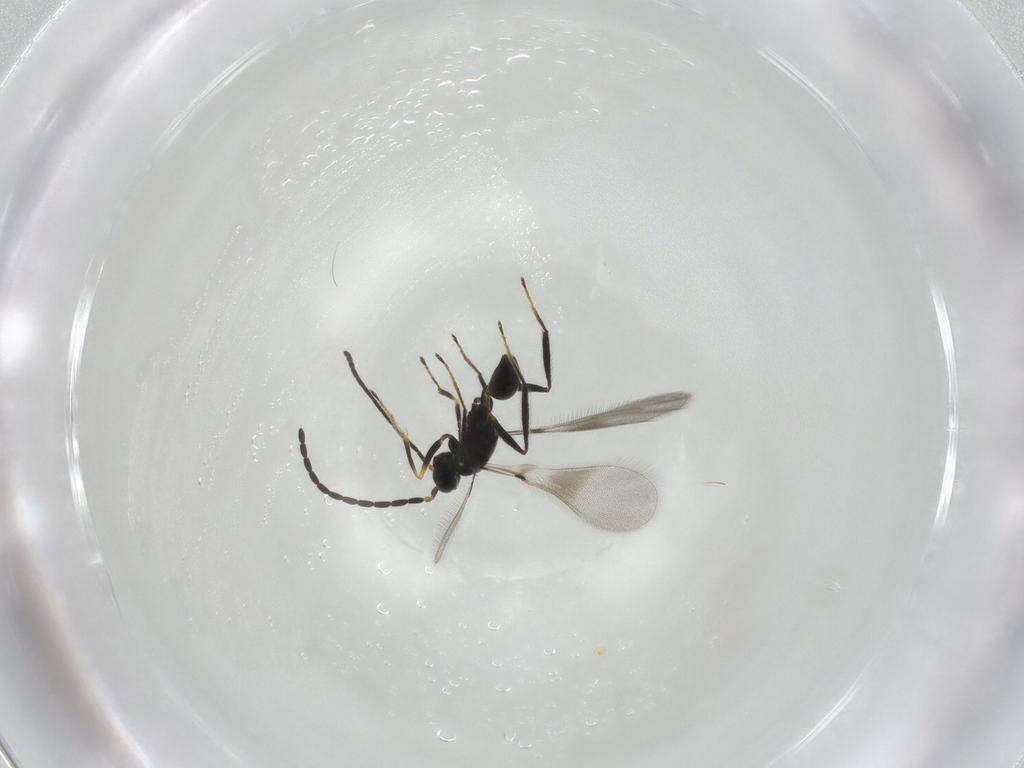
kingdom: Animalia
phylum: Arthropoda
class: Insecta
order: Hymenoptera
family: Mymaridae
